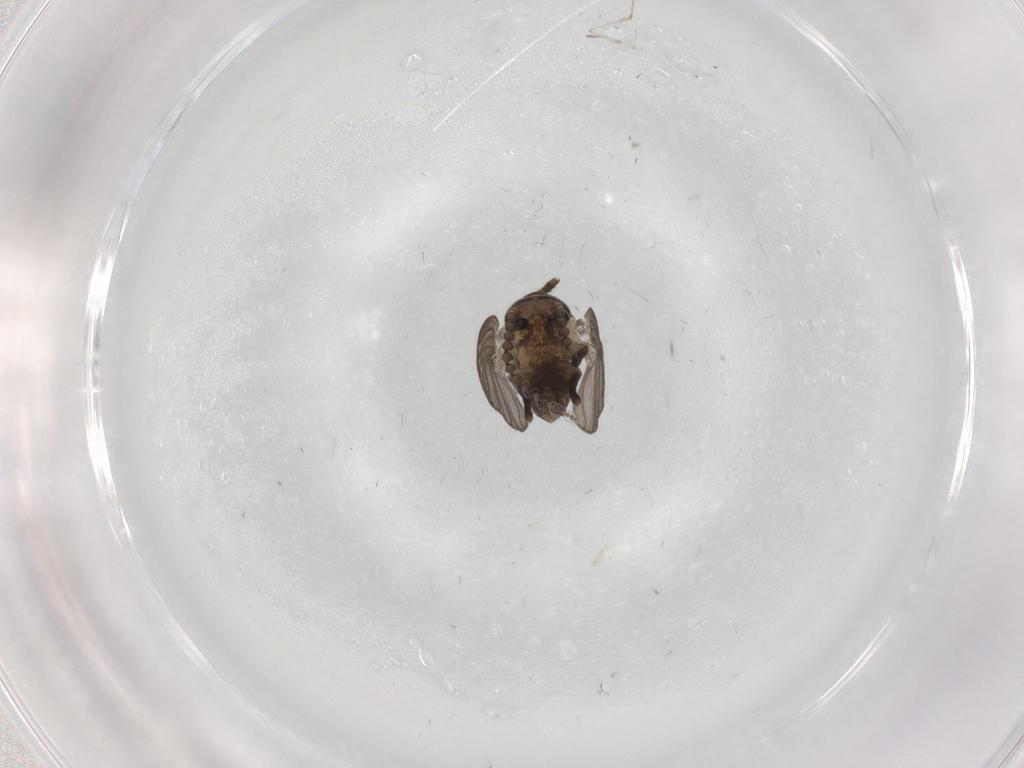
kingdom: Animalia
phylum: Arthropoda
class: Insecta
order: Diptera
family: Psychodidae
